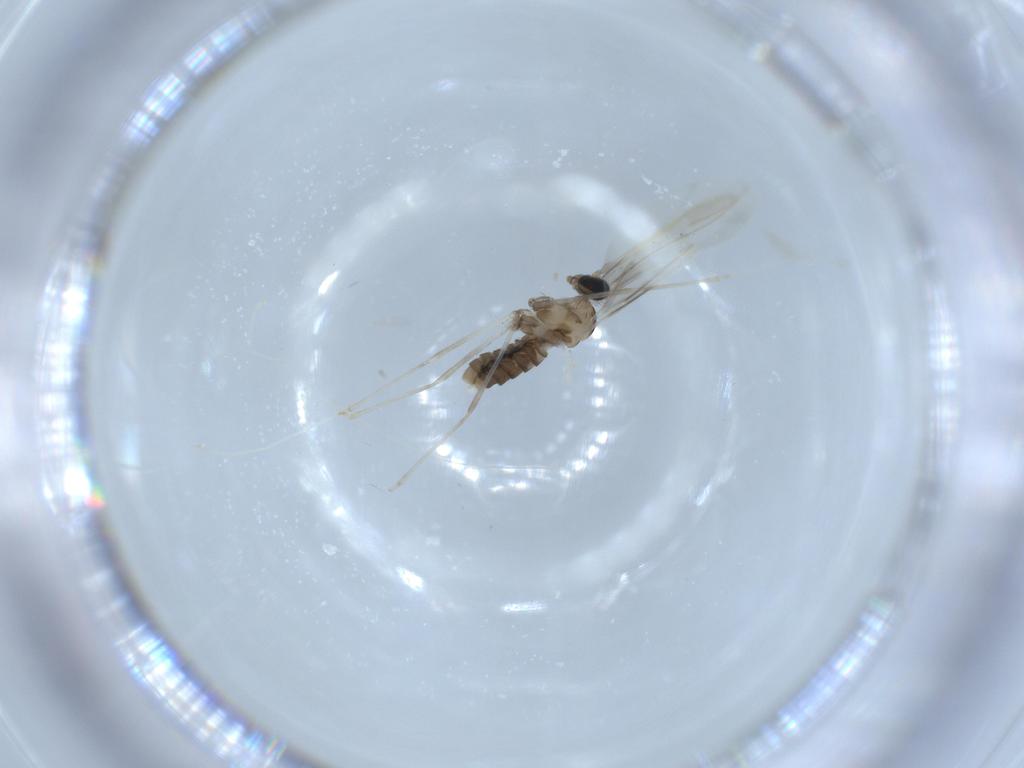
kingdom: Animalia
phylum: Arthropoda
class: Insecta
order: Diptera
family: Cecidomyiidae
